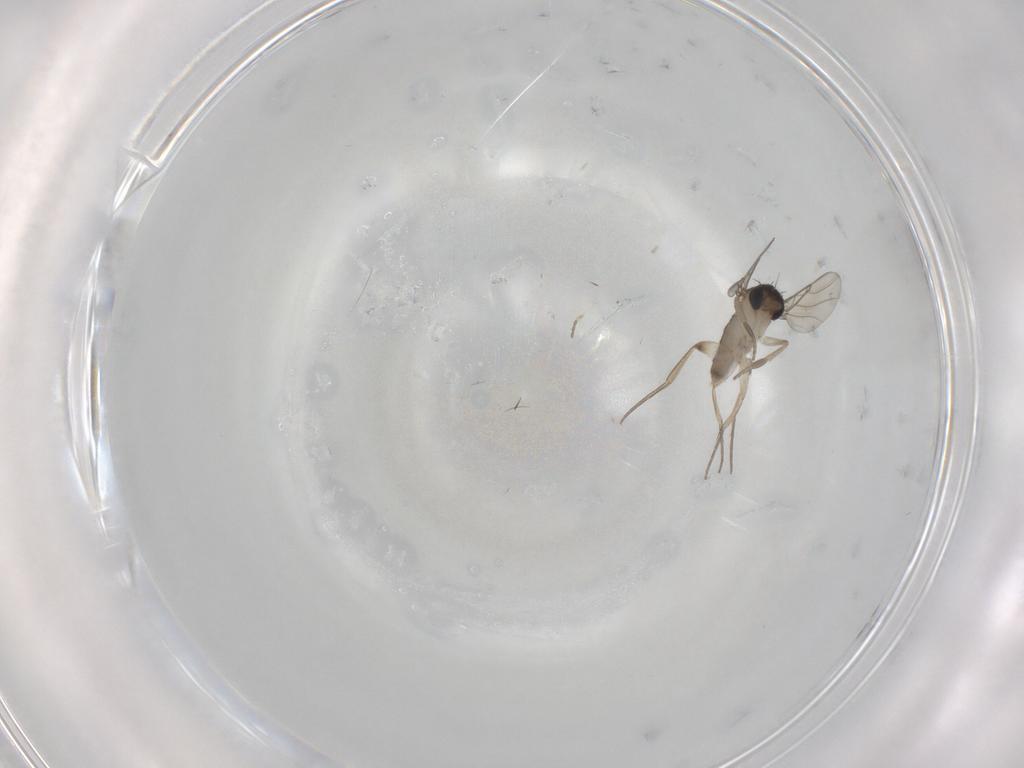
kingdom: Animalia
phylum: Arthropoda
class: Insecta
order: Diptera
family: Phoridae
